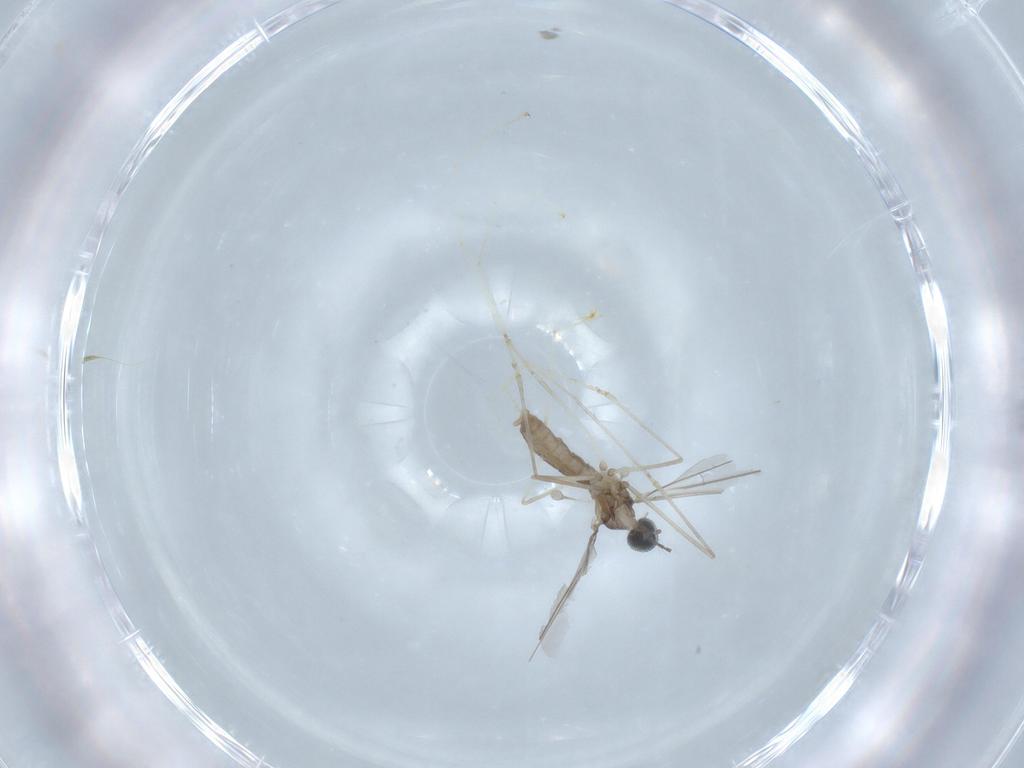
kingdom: Animalia
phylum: Arthropoda
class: Insecta
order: Diptera
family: Cecidomyiidae
